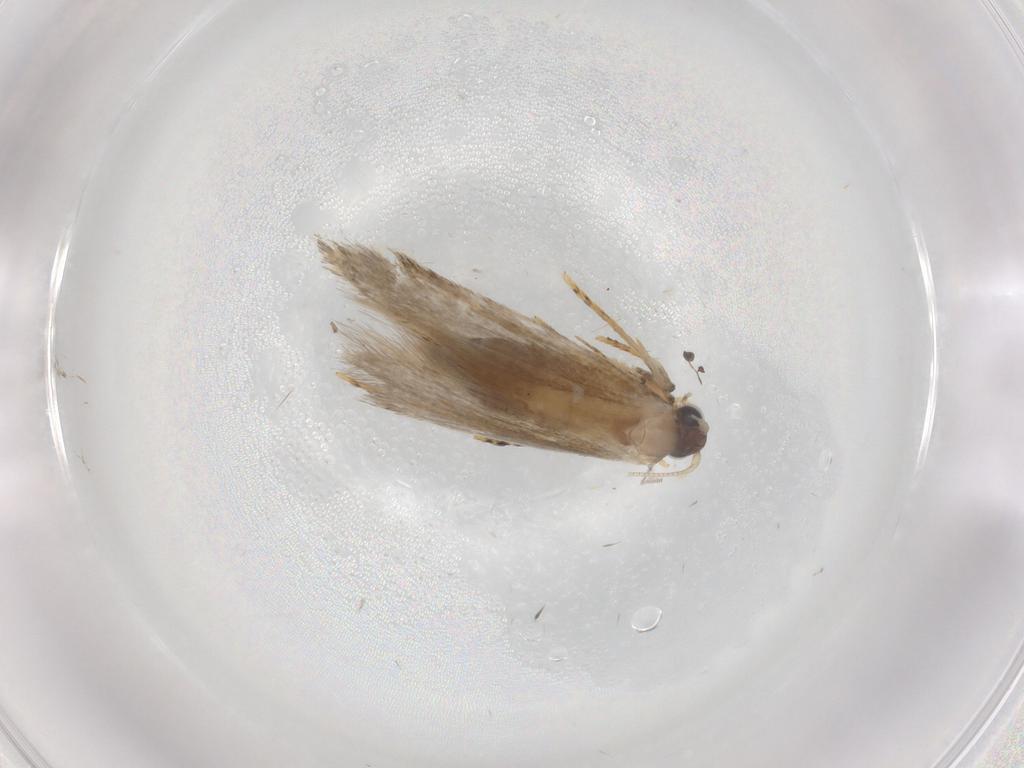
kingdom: Animalia
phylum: Arthropoda
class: Insecta
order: Lepidoptera
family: Tineidae
